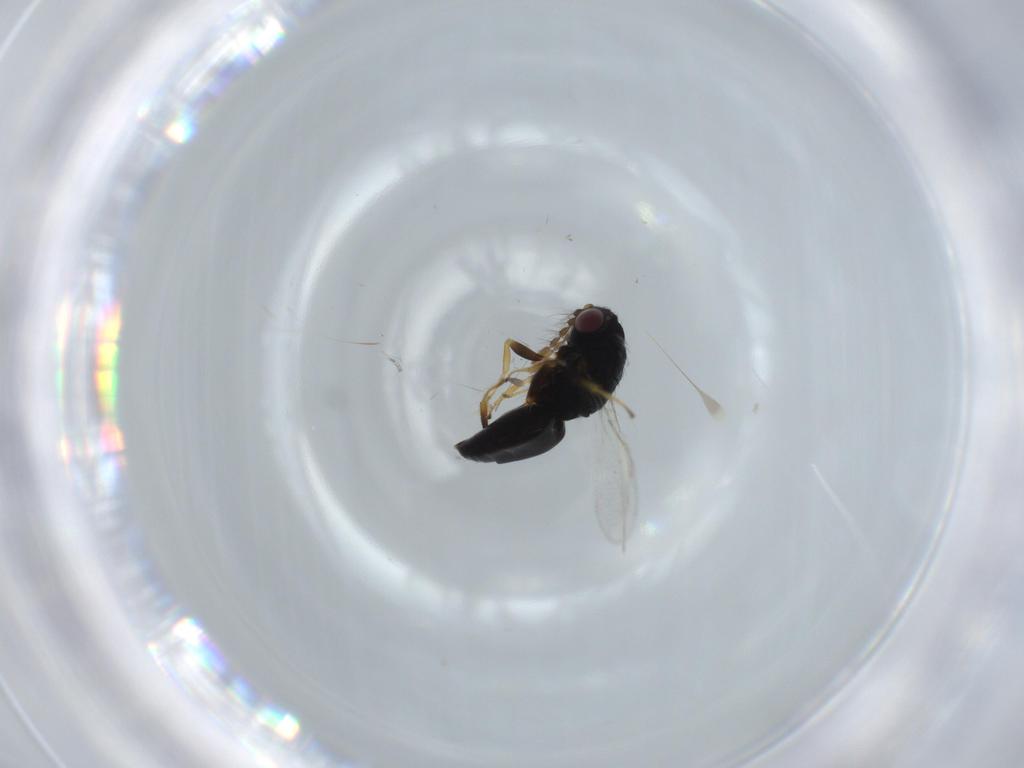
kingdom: Animalia
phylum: Arthropoda
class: Insecta
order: Hymenoptera
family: Pteromalidae
